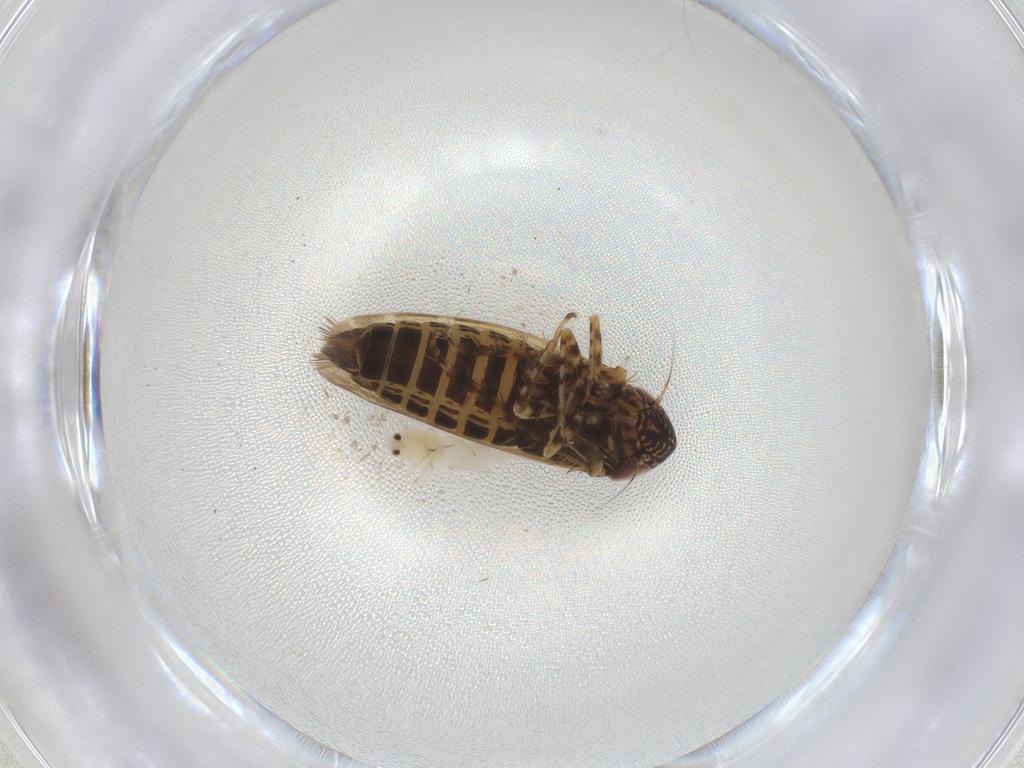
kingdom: Animalia
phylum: Arthropoda
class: Insecta
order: Hemiptera
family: Aleyrodidae
